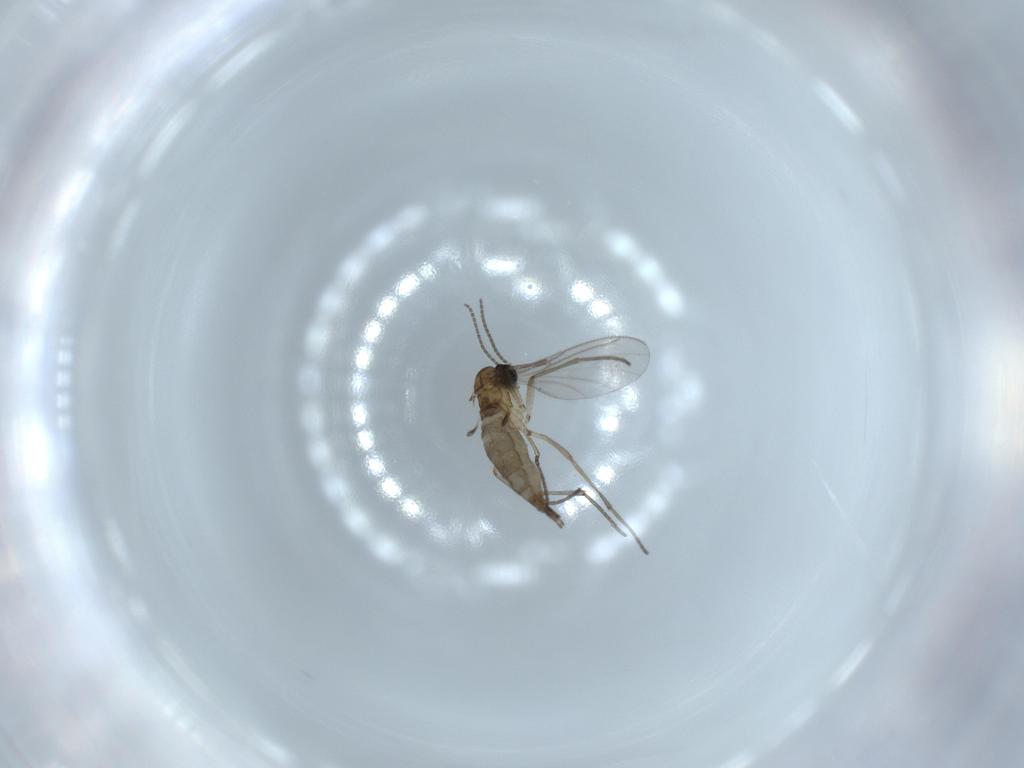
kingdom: Animalia
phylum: Arthropoda
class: Insecta
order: Diptera
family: Sciaridae
